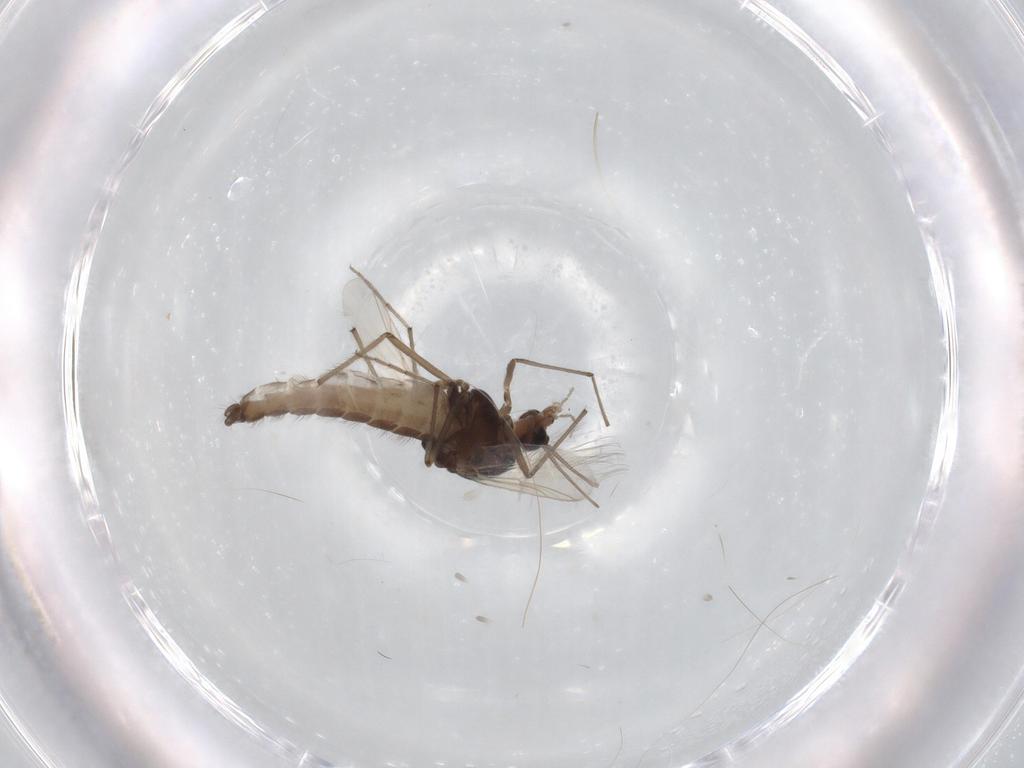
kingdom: Animalia
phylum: Arthropoda
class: Insecta
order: Diptera
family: Chironomidae
